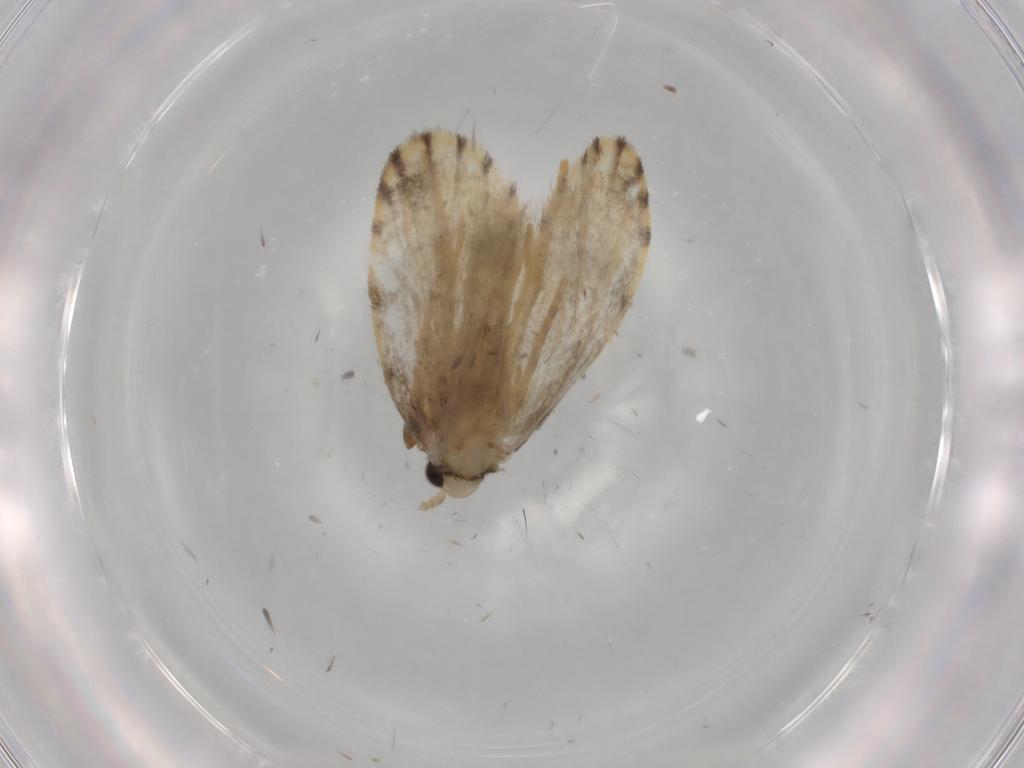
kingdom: Animalia
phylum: Arthropoda
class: Insecta
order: Lepidoptera
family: Psychidae
